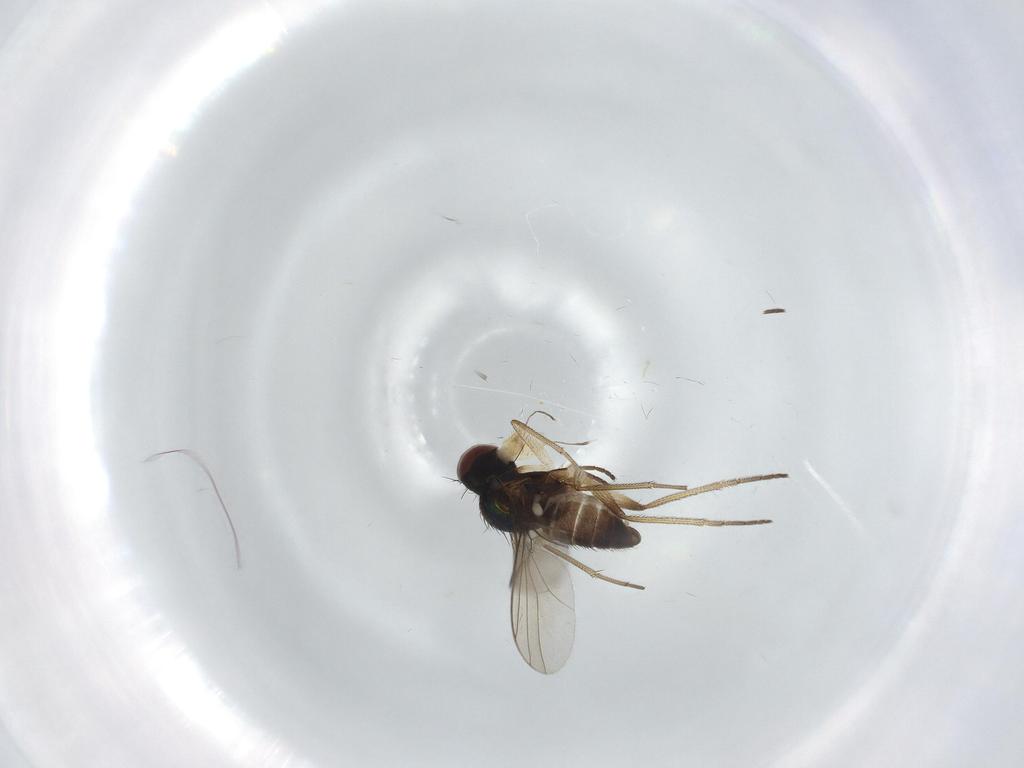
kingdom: Animalia
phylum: Arthropoda
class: Insecta
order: Diptera
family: Dolichopodidae
